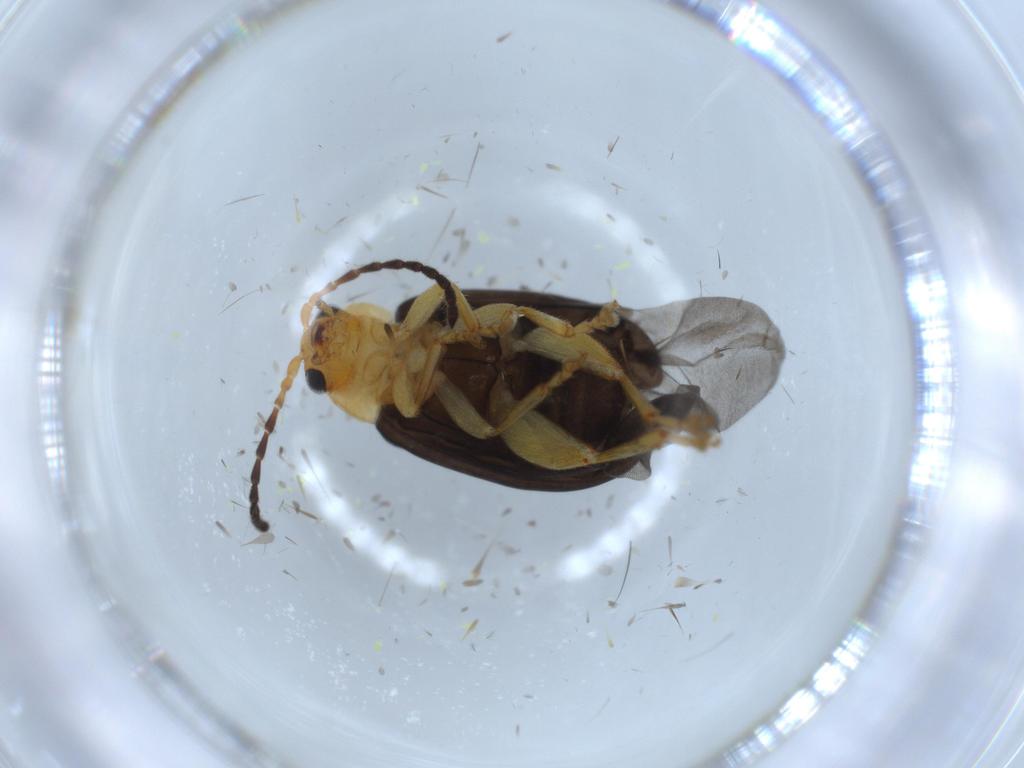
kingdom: Animalia
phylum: Arthropoda
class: Insecta
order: Coleoptera
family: Chrysomelidae
